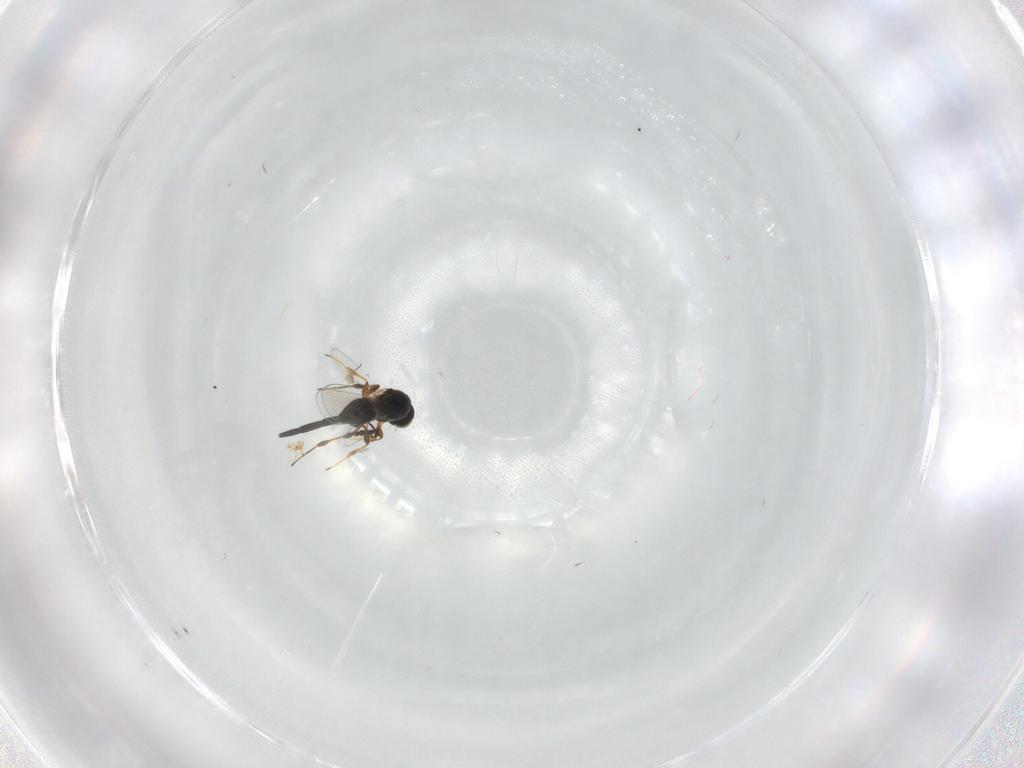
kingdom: Animalia
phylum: Arthropoda
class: Insecta
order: Hymenoptera
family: Platygastridae
